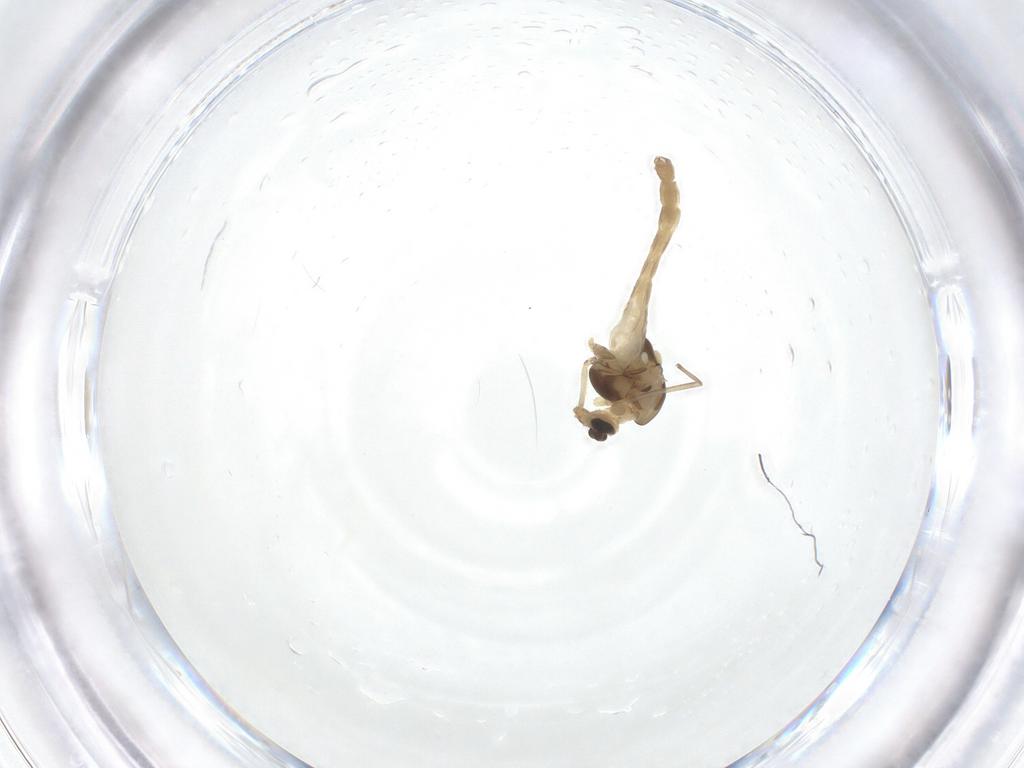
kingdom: Animalia
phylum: Arthropoda
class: Insecta
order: Diptera
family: Chironomidae
